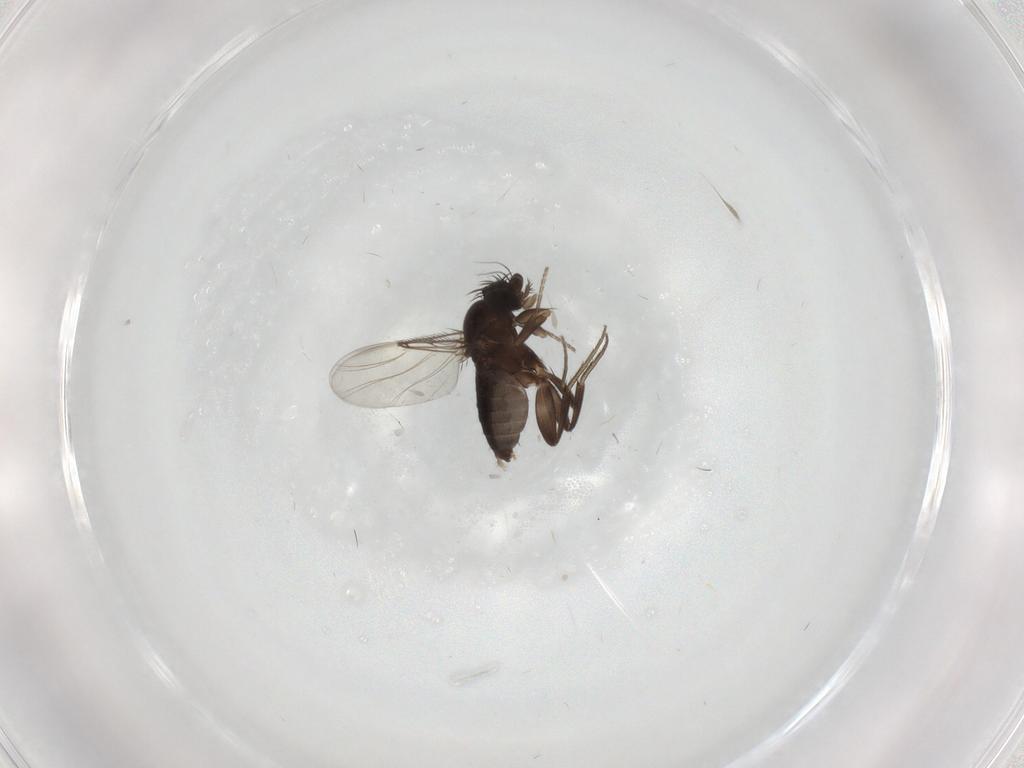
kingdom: Animalia
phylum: Arthropoda
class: Insecta
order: Diptera
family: Phoridae
